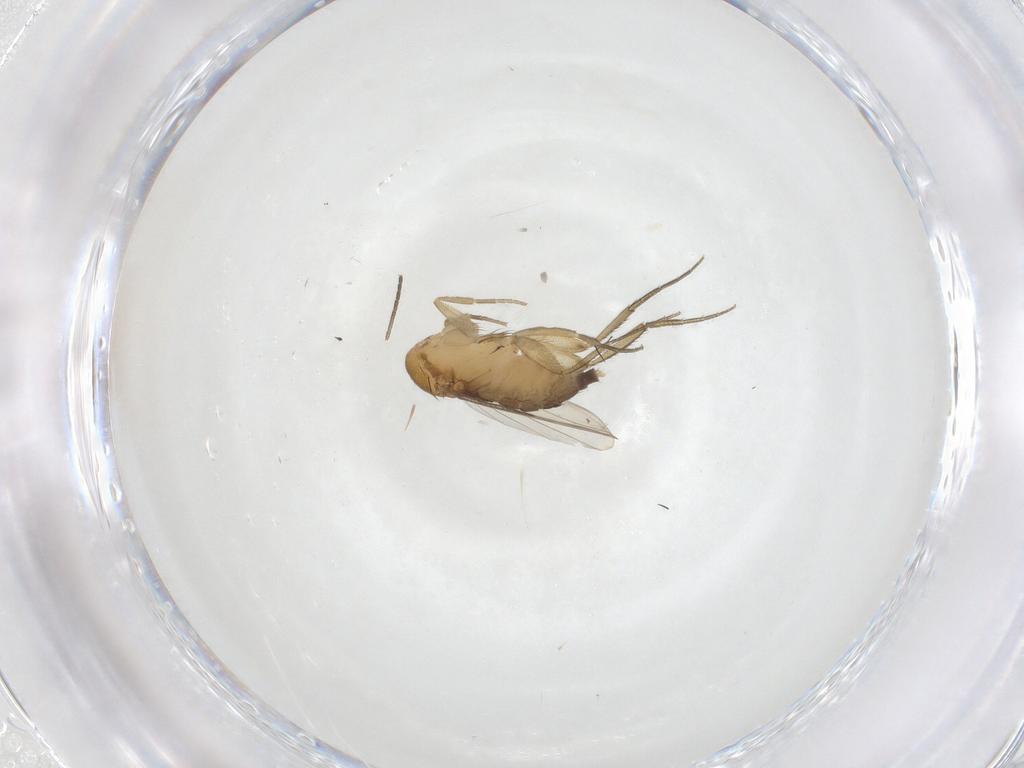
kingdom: Animalia
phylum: Arthropoda
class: Insecta
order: Diptera
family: Phoridae
